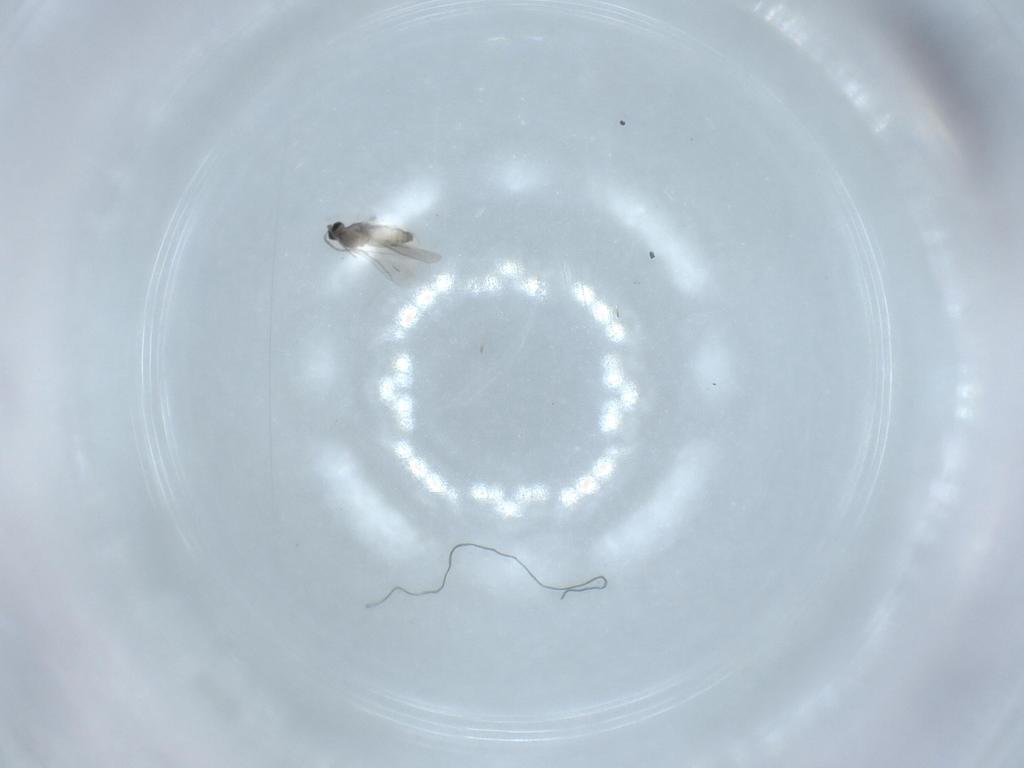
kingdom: Animalia
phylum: Arthropoda
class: Insecta
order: Diptera
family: Cecidomyiidae
